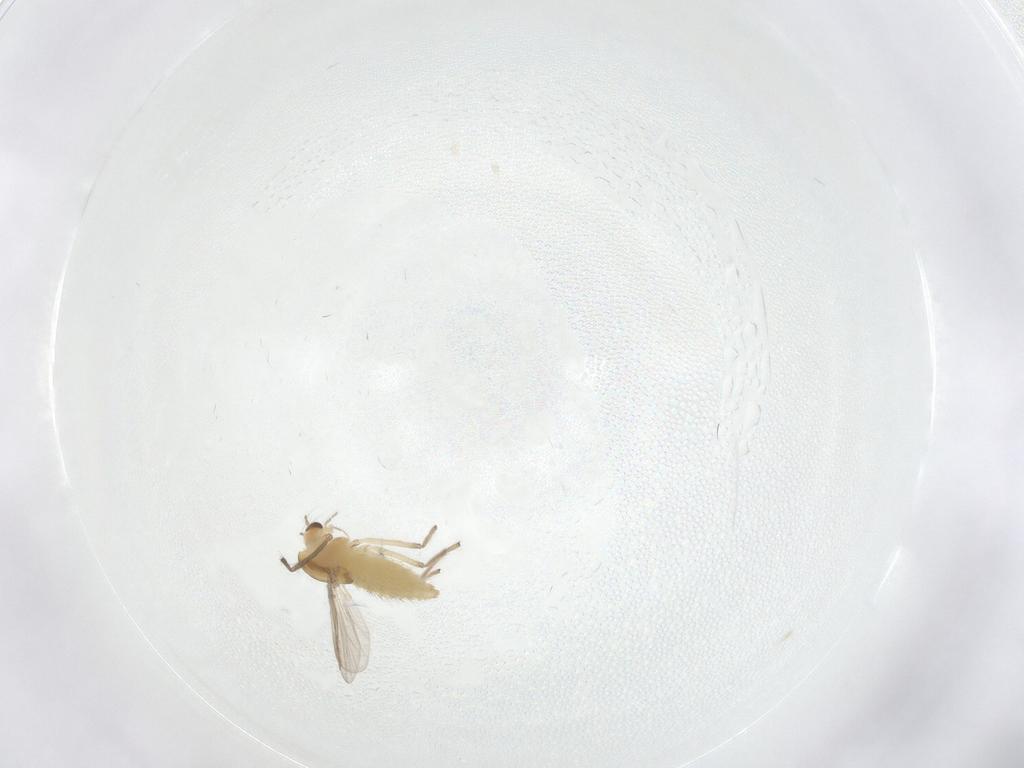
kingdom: Animalia
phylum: Arthropoda
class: Insecta
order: Diptera
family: Chironomidae
